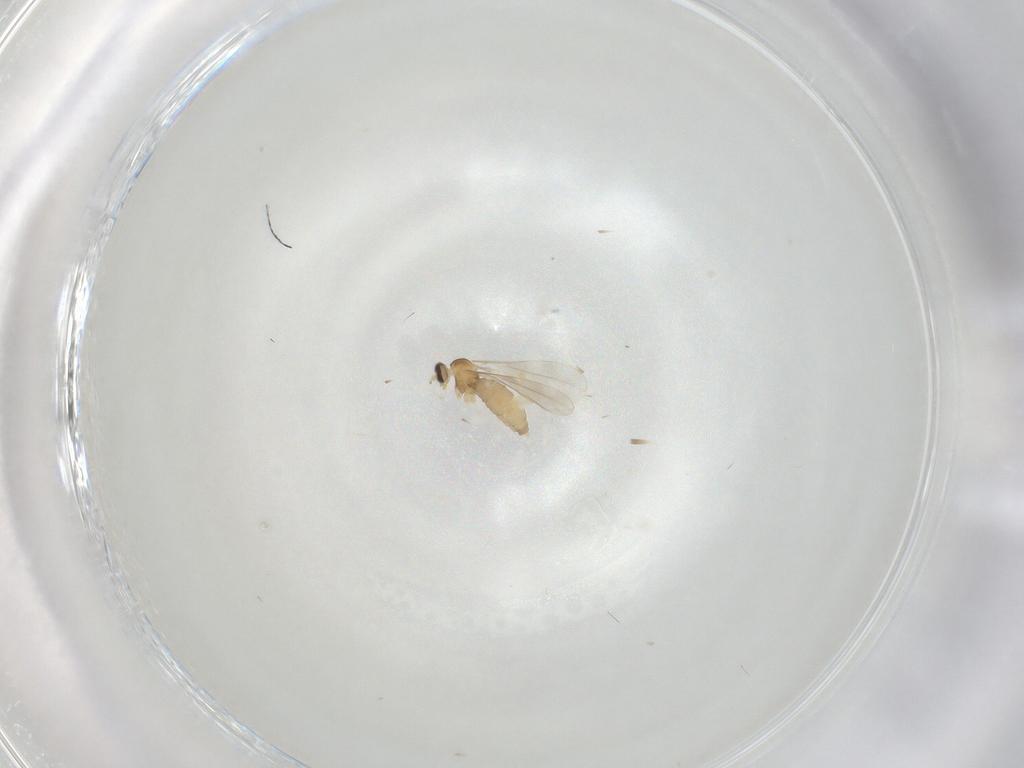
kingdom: Animalia
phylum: Arthropoda
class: Insecta
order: Diptera
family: Cecidomyiidae
